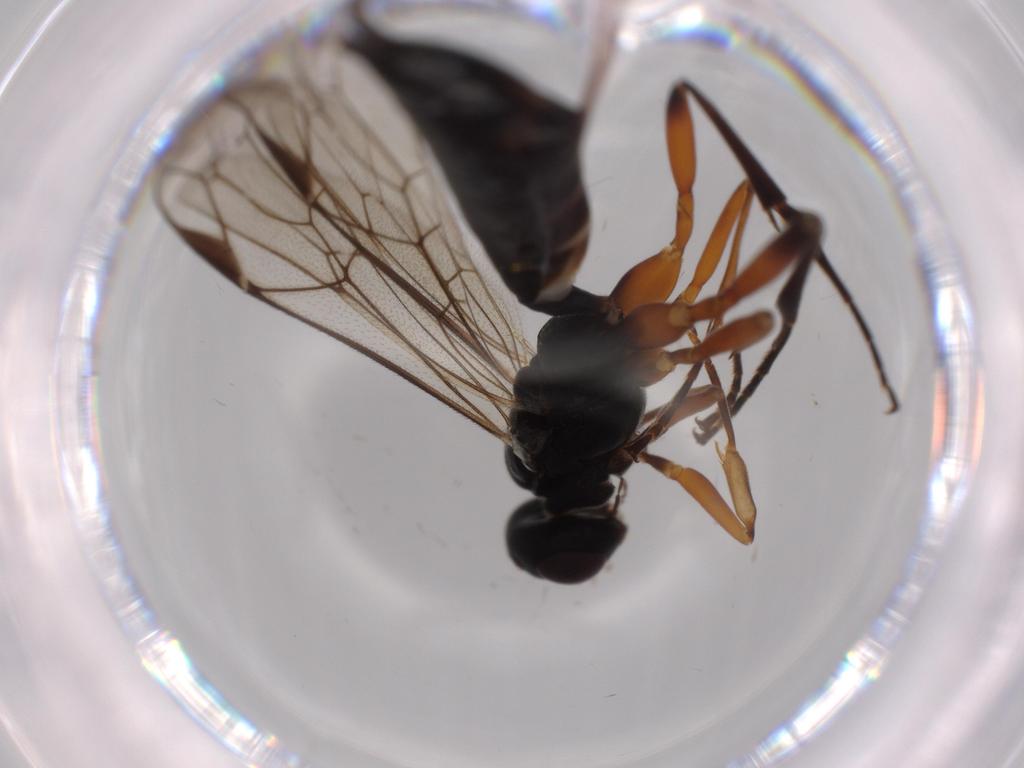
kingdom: Animalia
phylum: Arthropoda
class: Insecta
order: Hymenoptera
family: Ichneumonidae
